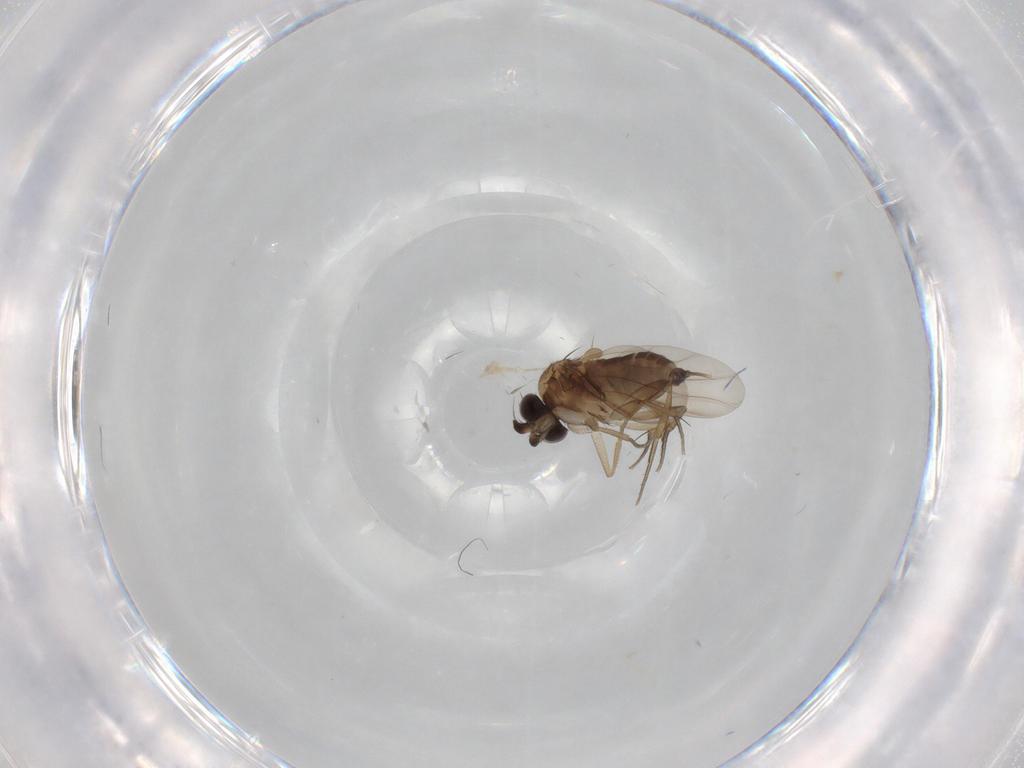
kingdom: Animalia
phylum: Arthropoda
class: Insecta
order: Diptera
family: Phoridae
